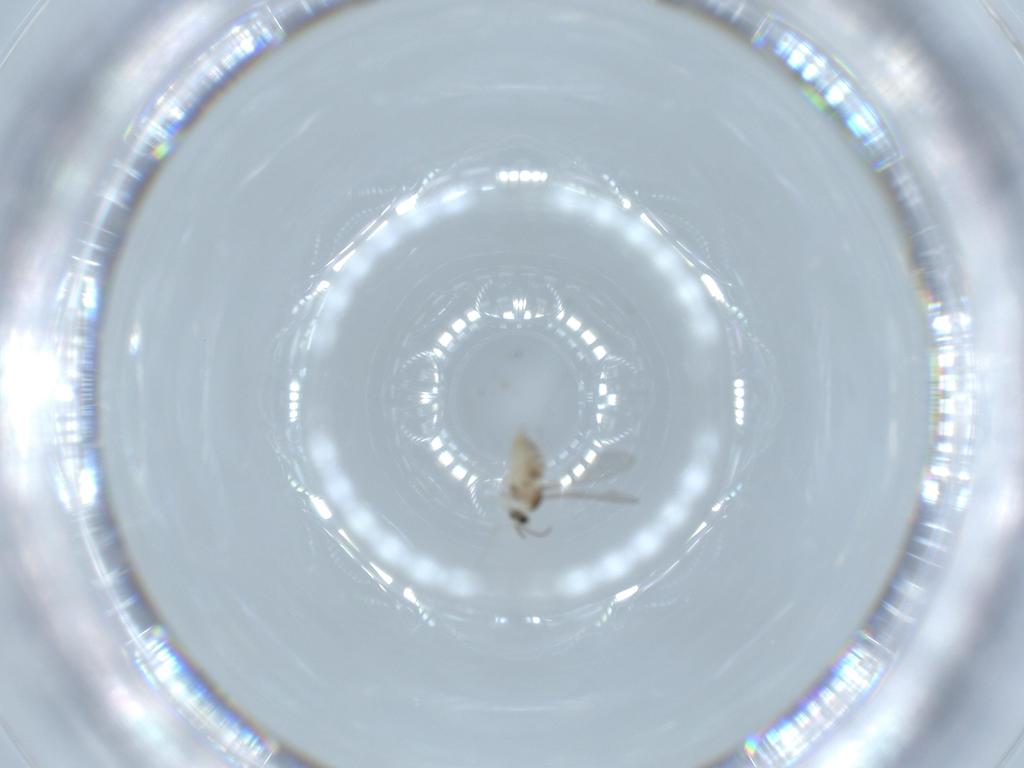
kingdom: Animalia
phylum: Arthropoda
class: Insecta
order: Diptera
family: Cecidomyiidae
